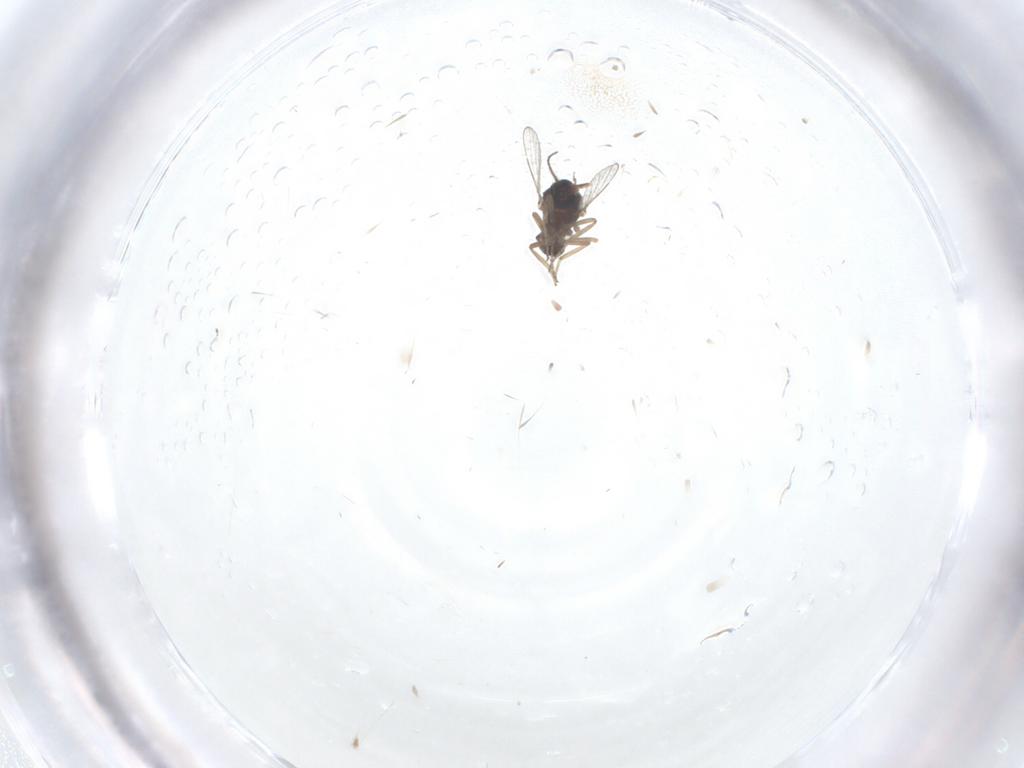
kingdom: Animalia
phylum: Arthropoda
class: Insecta
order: Diptera
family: Ceratopogonidae
